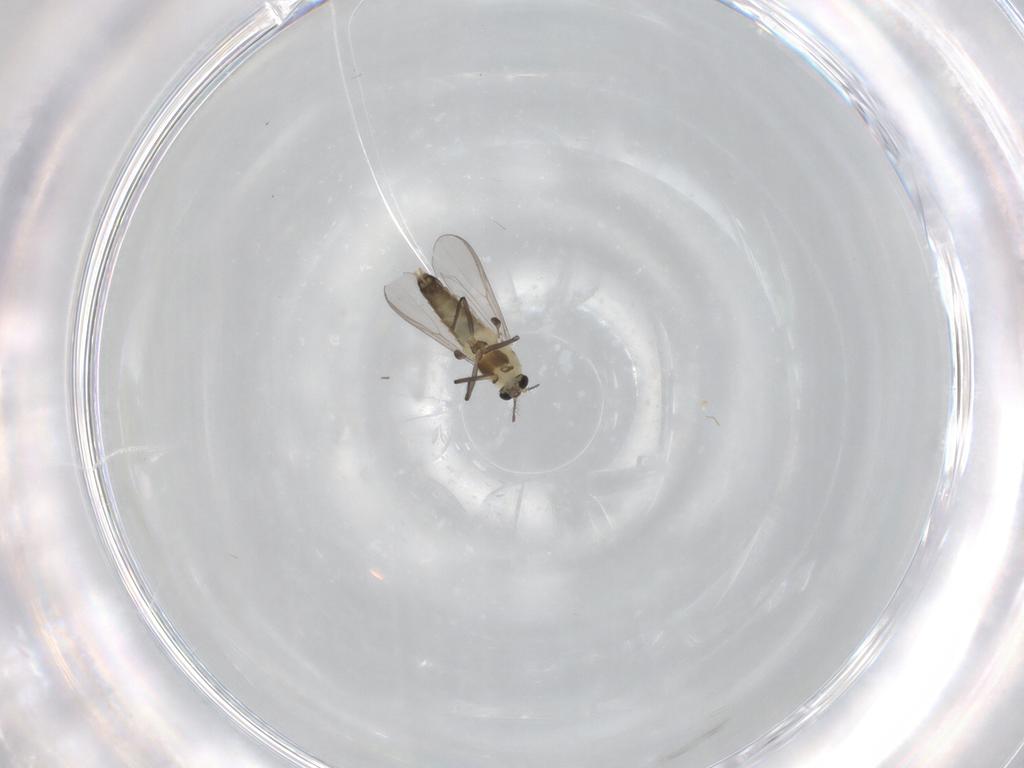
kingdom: Animalia
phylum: Arthropoda
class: Insecta
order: Diptera
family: Chironomidae
